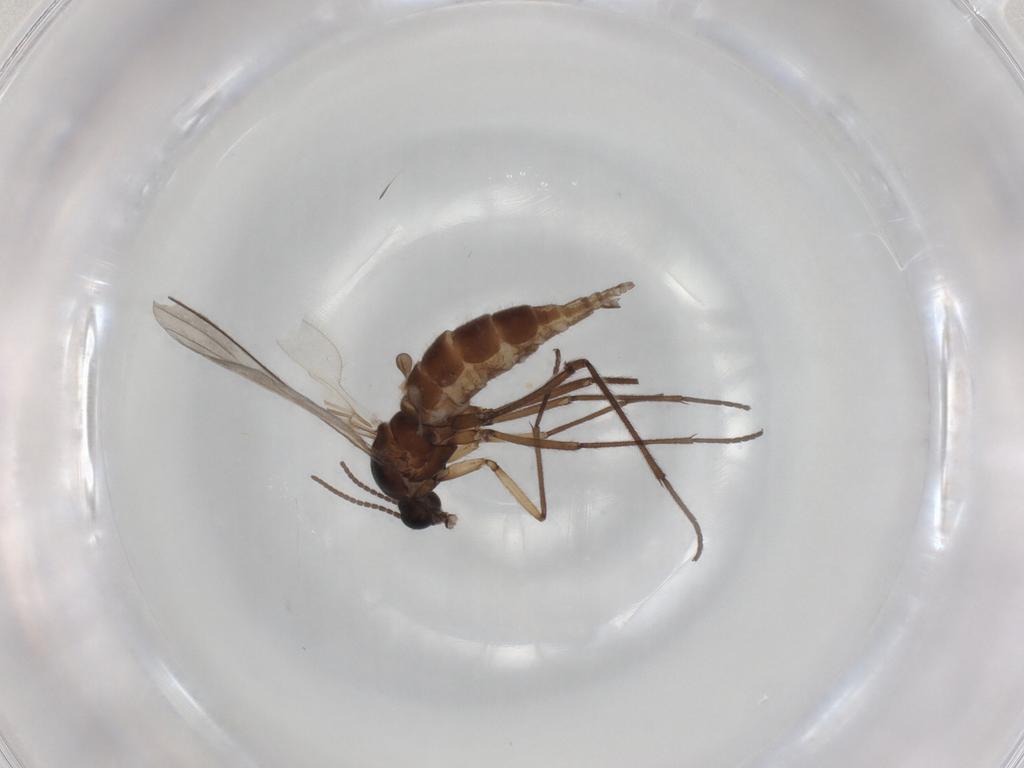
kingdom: Animalia
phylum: Arthropoda
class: Insecta
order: Diptera
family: Sciaridae
